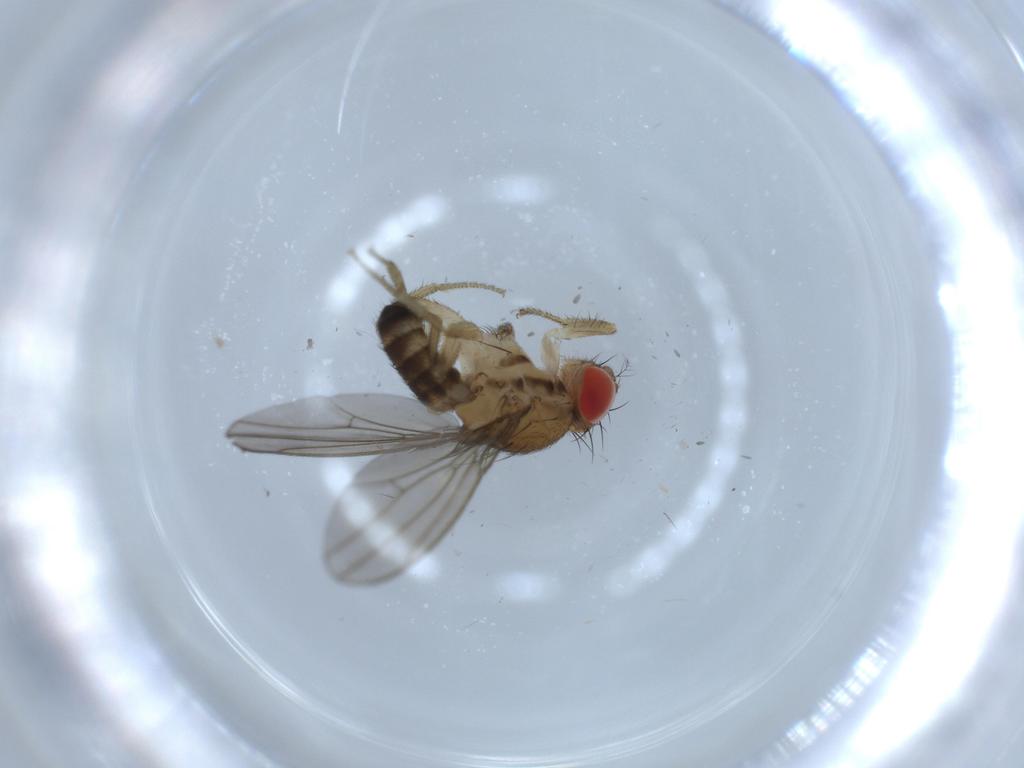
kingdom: Animalia
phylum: Arthropoda
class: Insecta
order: Diptera
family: Drosophilidae
